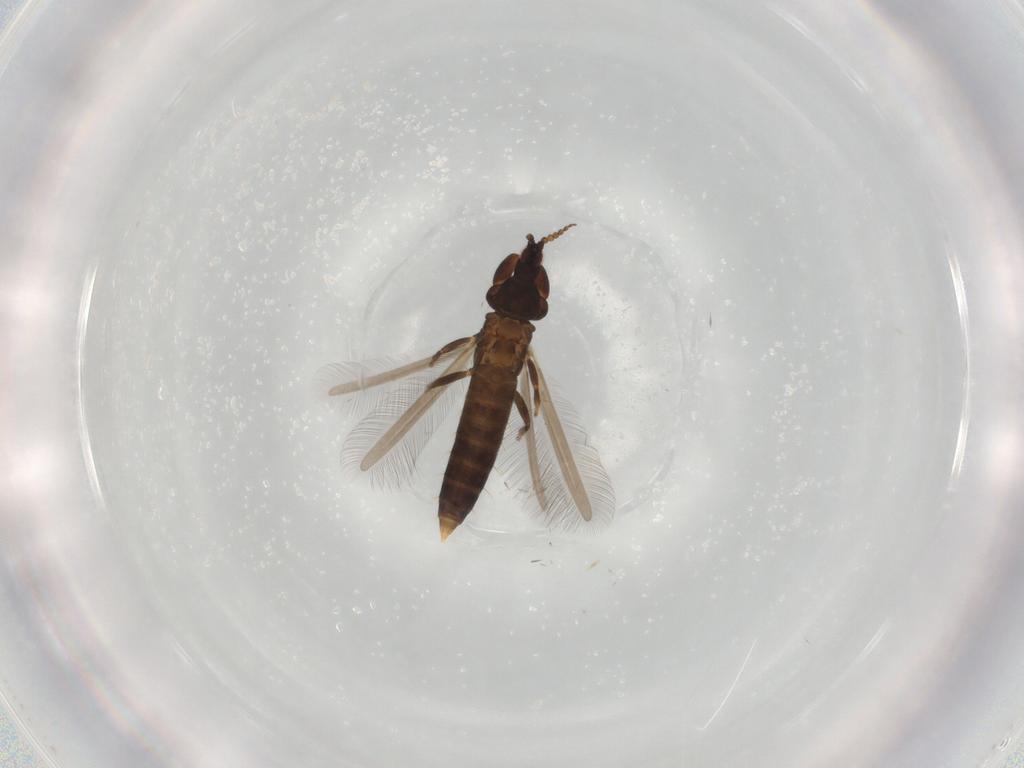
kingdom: Animalia
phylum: Arthropoda
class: Insecta
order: Thysanoptera
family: Phlaeothripidae
